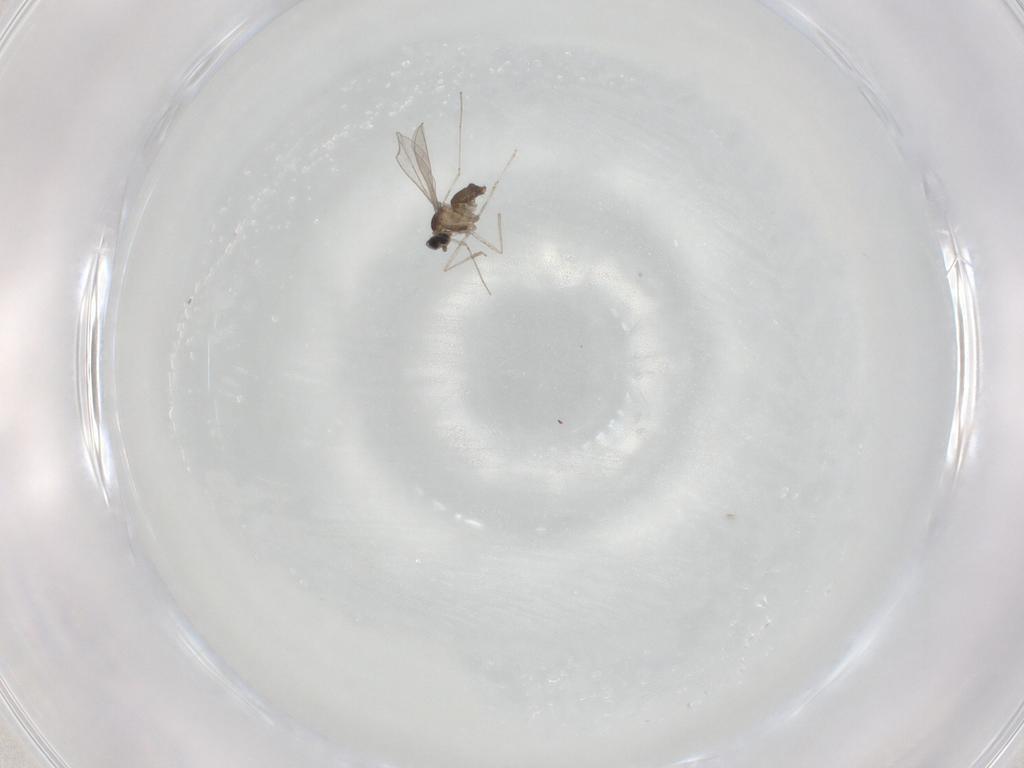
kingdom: Animalia
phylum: Arthropoda
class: Insecta
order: Diptera
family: Cecidomyiidae
